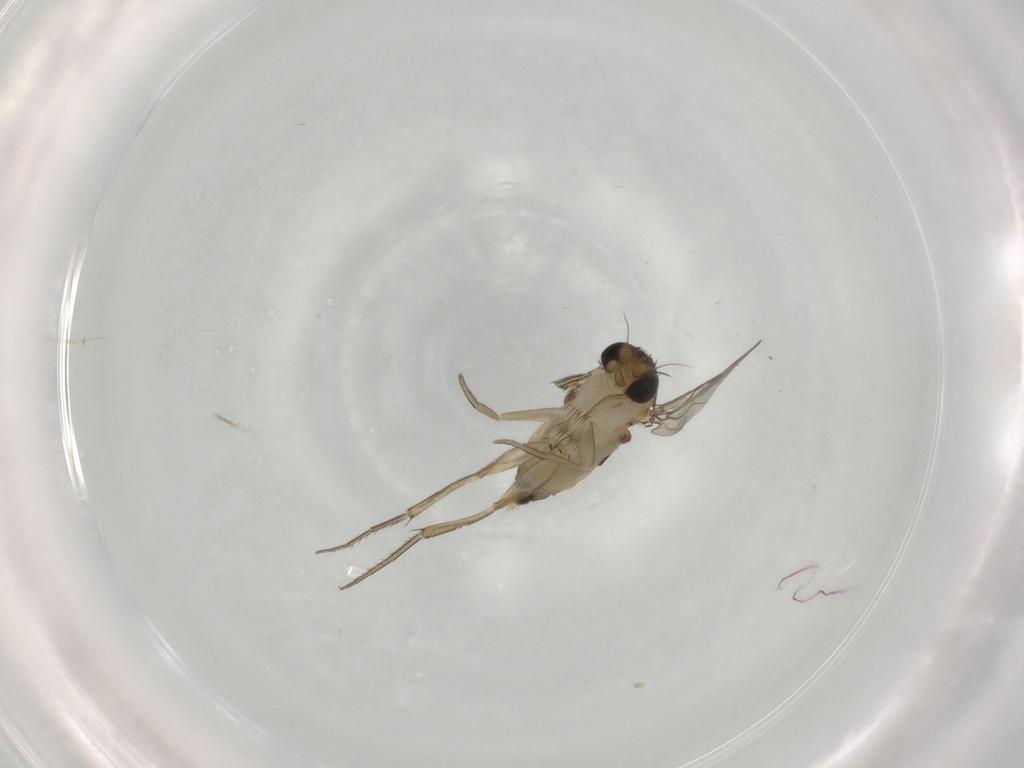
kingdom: Animalia
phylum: Arthropoda
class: Insecta
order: Diptera
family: Phoridae
